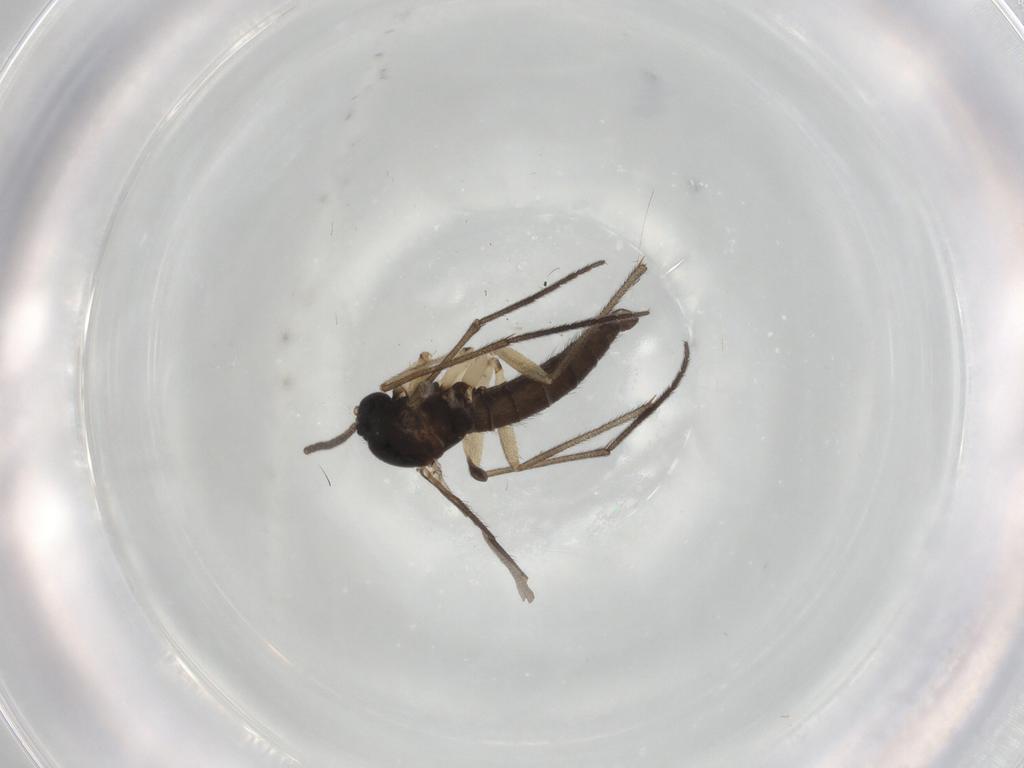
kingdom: Animalia
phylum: Arthropoda
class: Insecta
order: Diptera
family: Sciaridae
